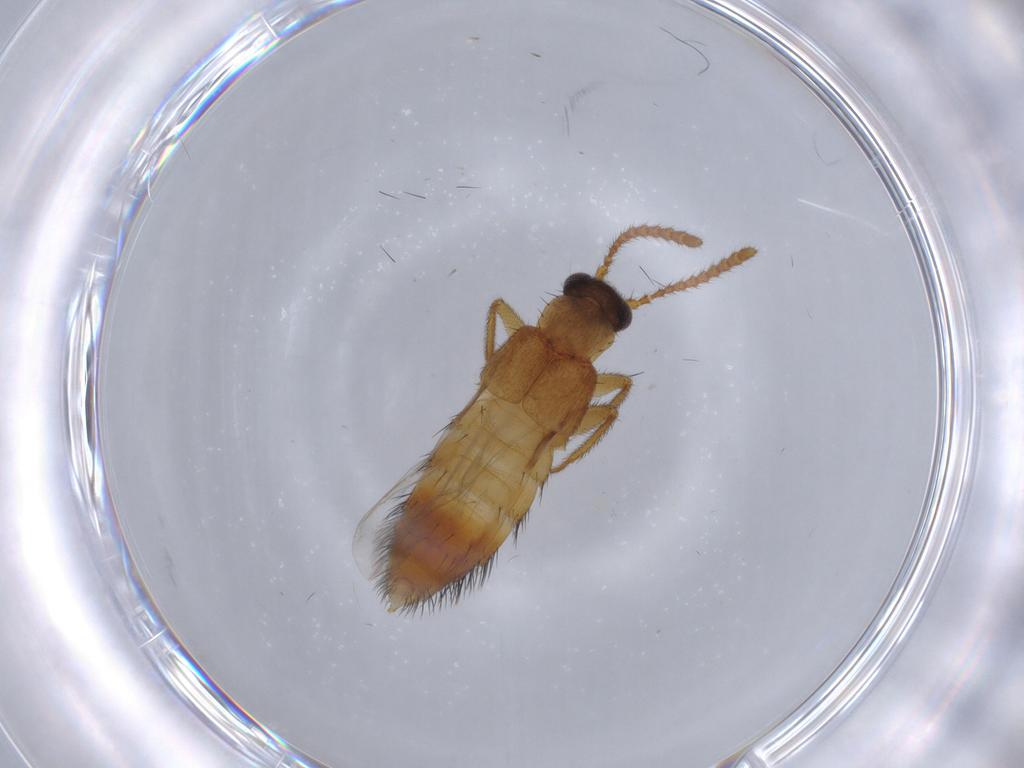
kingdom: Animalia
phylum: Arthropoda
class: Insecta
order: Coleoptera
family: Staphylinidae
